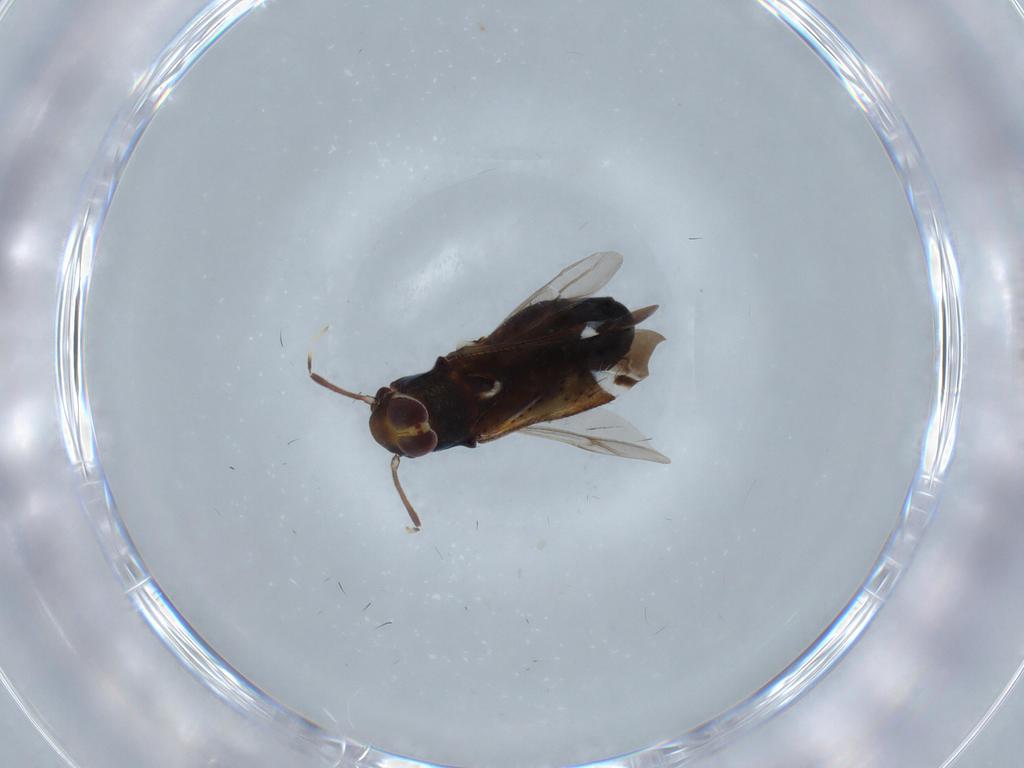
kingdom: Animalia
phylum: Arthropoda
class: Insecta
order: Hemiptera
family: Miridae
